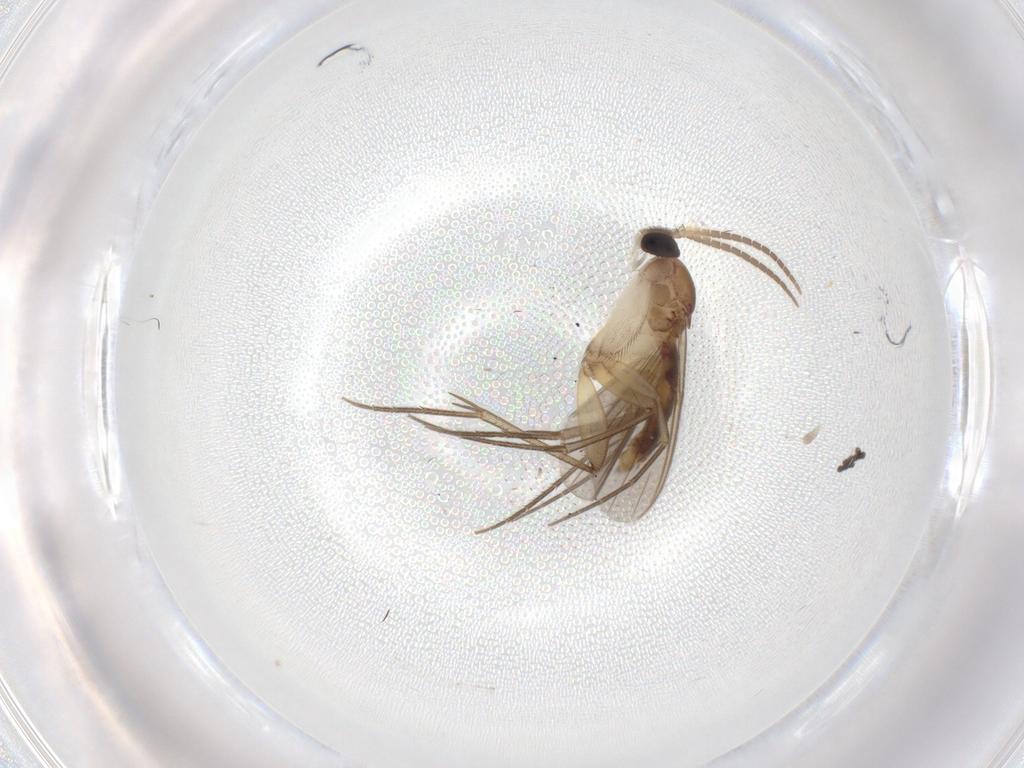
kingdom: Animalia
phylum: Arthropoda
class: Insecta
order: Diptera
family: Mycetophilidae
